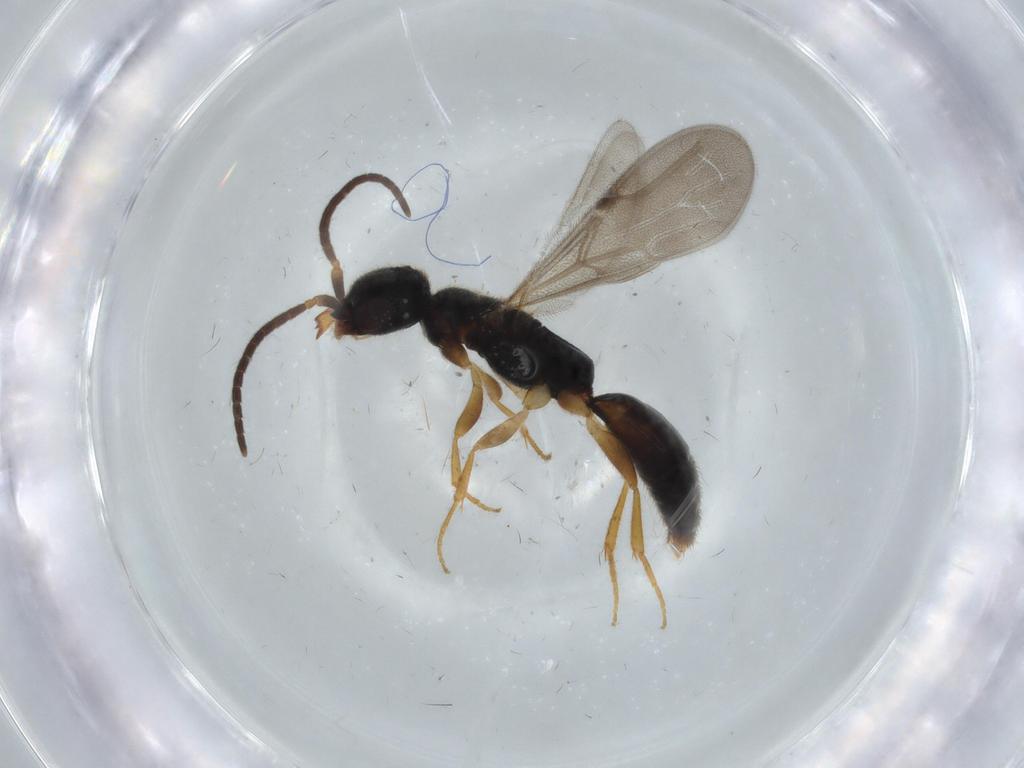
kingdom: Animalia
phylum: Arthropoda
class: Insecta
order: Hymenoptera
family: Bethylidae
